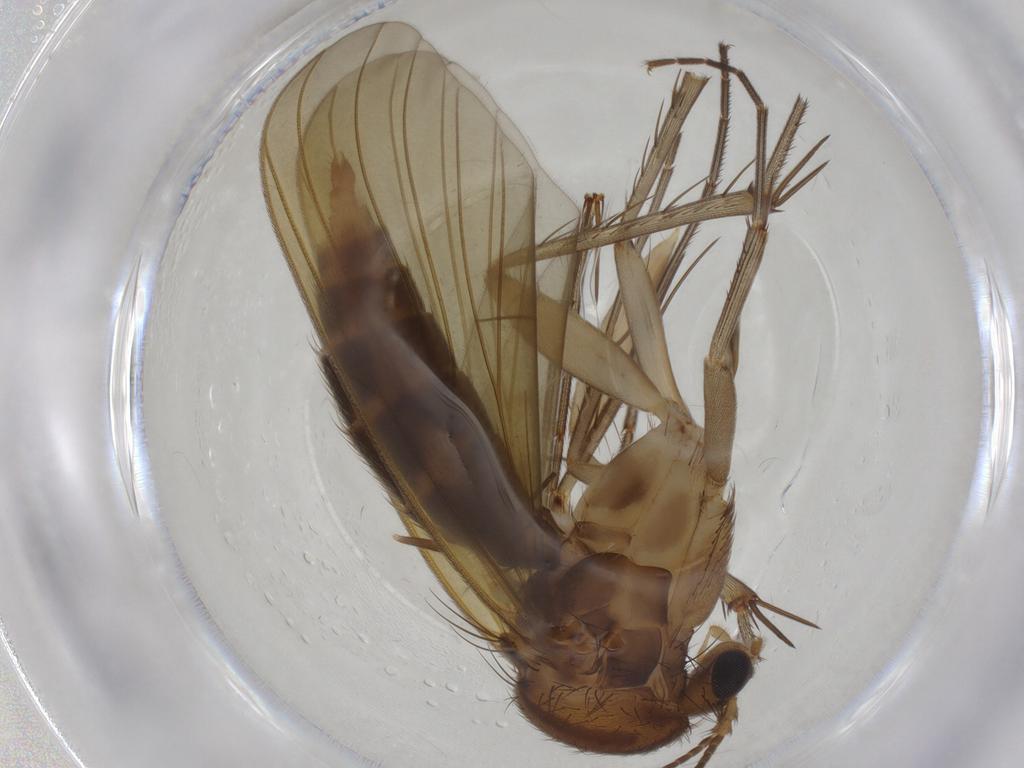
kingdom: Animalia
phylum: Arthropoda
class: Insecta
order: Diptera
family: Mycetophilidae
